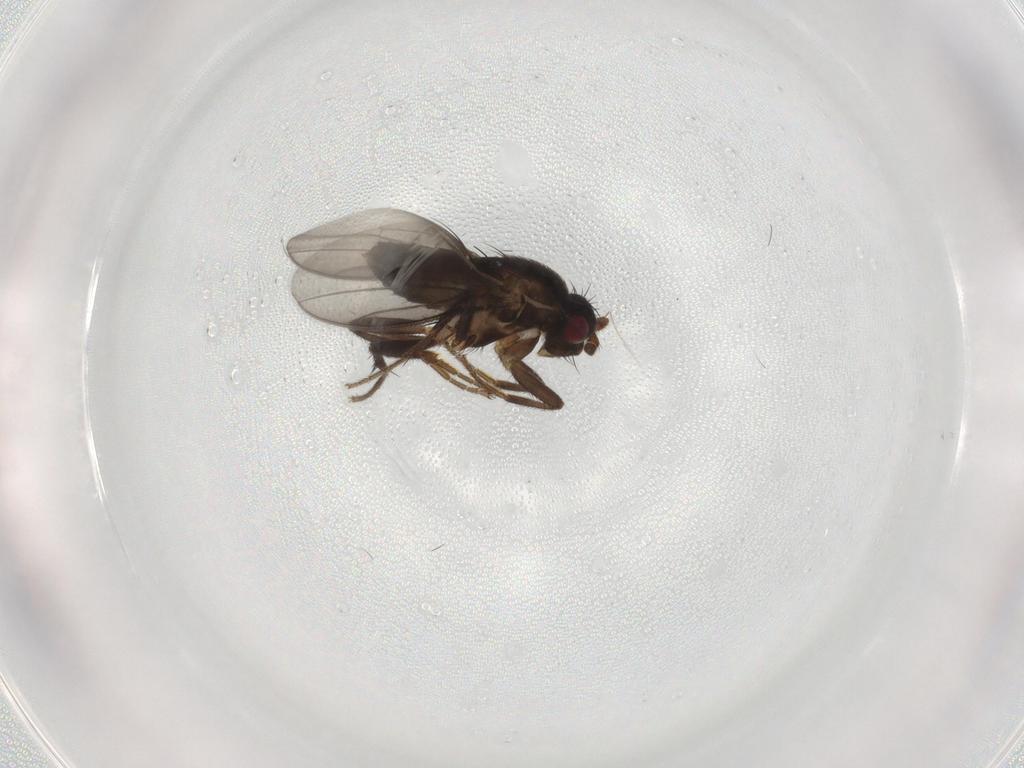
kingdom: Animalia
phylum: Arthropoda
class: Insecta
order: Diptera
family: Sphaeroceridae
